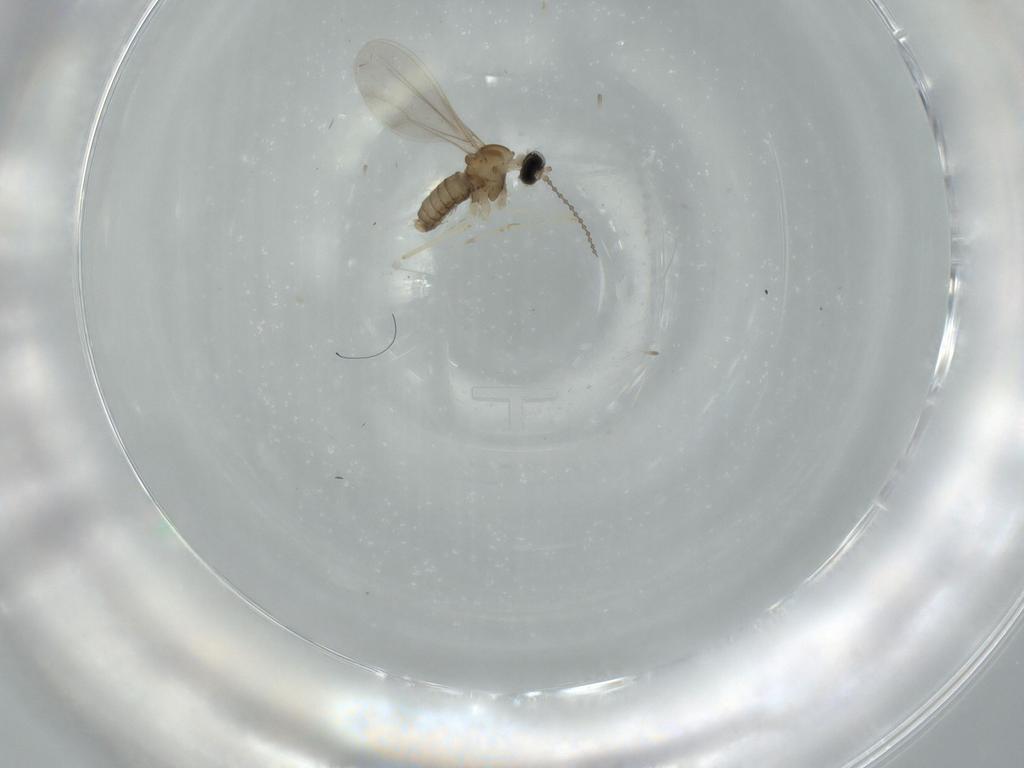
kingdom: Animalia
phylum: Arthropoda
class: Insecta
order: Diptera
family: Cecidomyiidae
